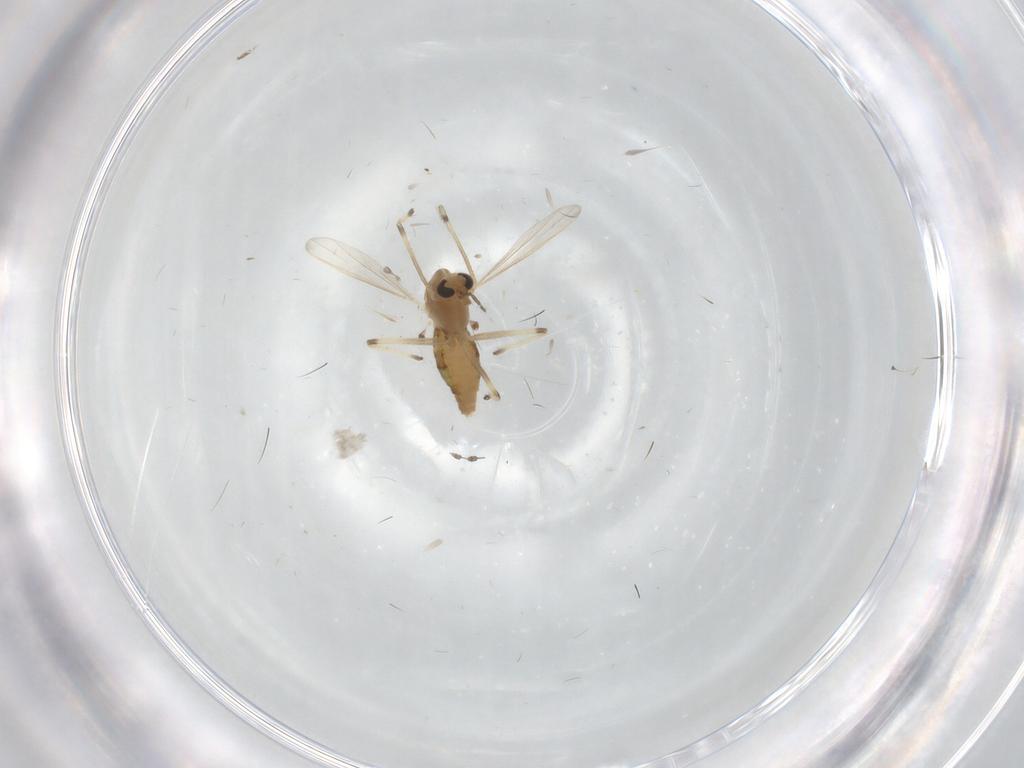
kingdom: Animalia
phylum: Arthropoda
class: Insecta
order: Diptera
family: Chironomidae
